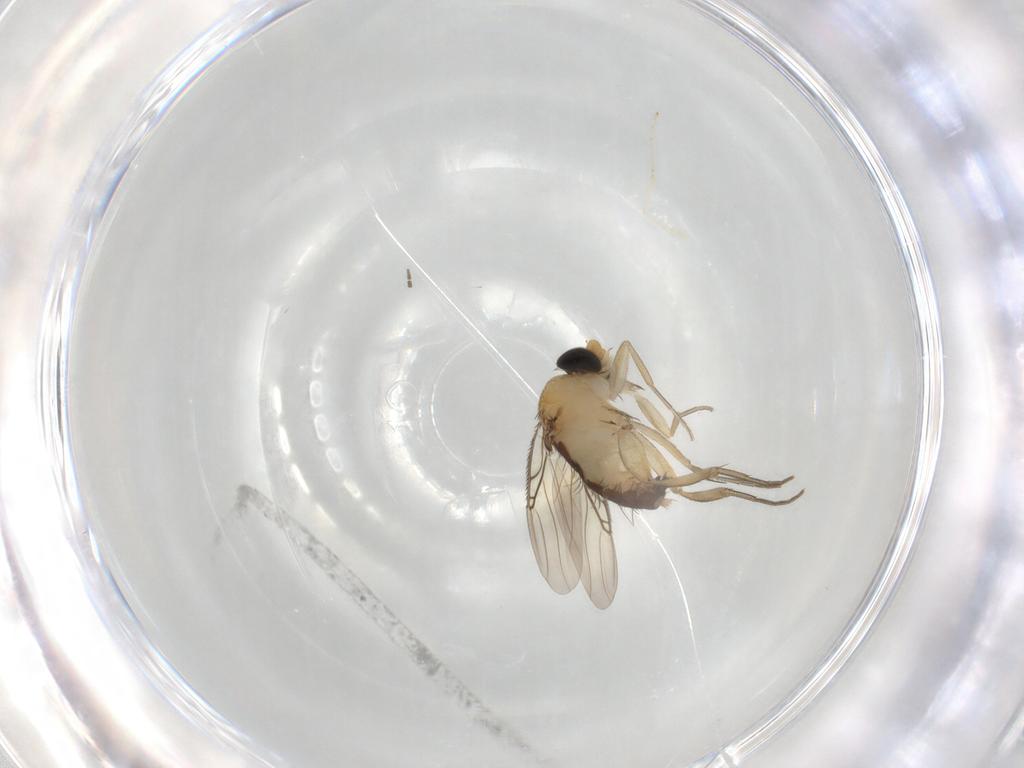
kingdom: Animalia
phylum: Arthropoda
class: Insecta
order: Diptera
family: Phoridae
